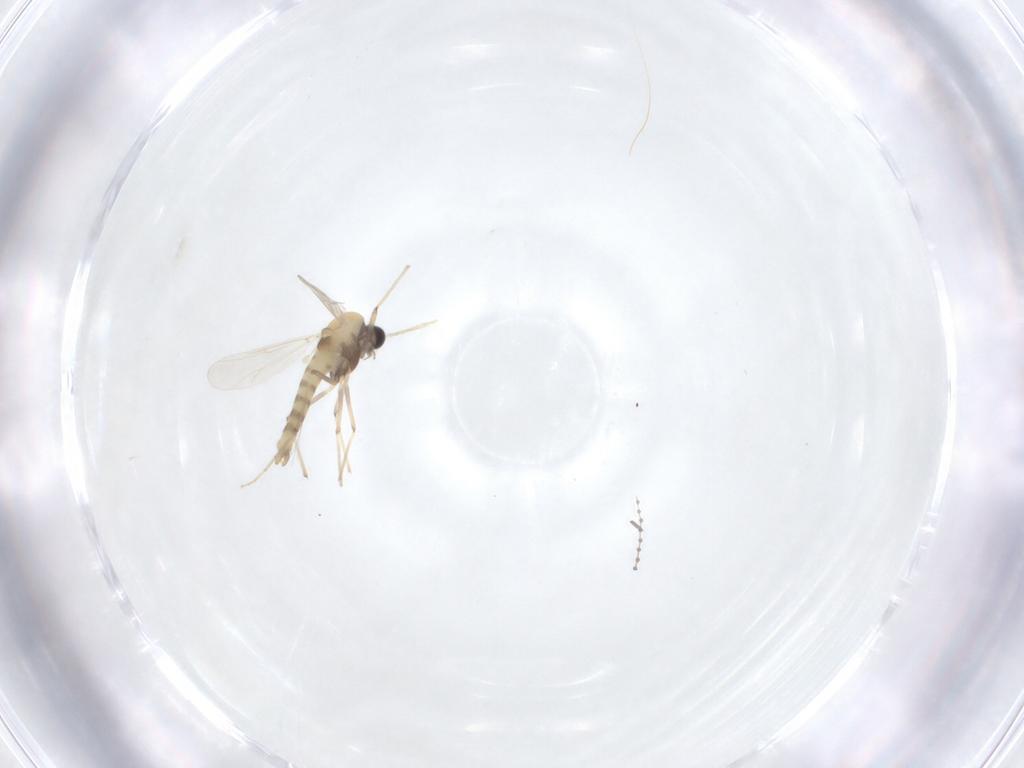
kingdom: Animalia
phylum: Arthropoda
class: Insecta
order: Diptera
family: Chironomidae
